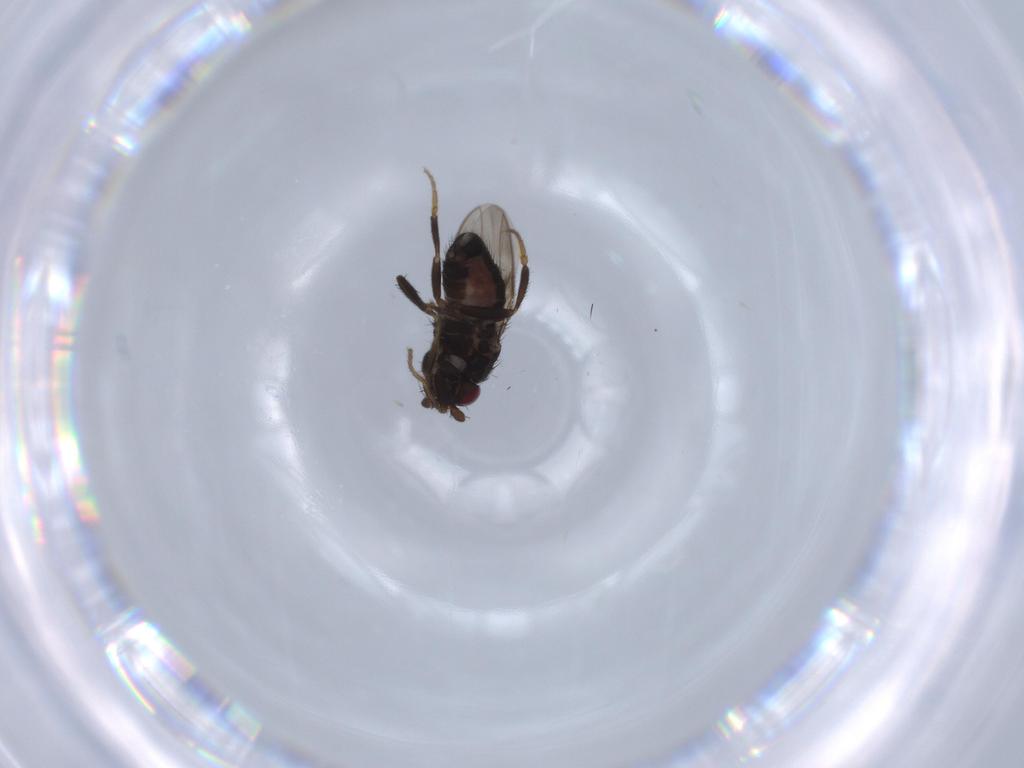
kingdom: Animalia
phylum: Arthropoda
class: Insecta
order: Diptera
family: Sphaeroceridae
